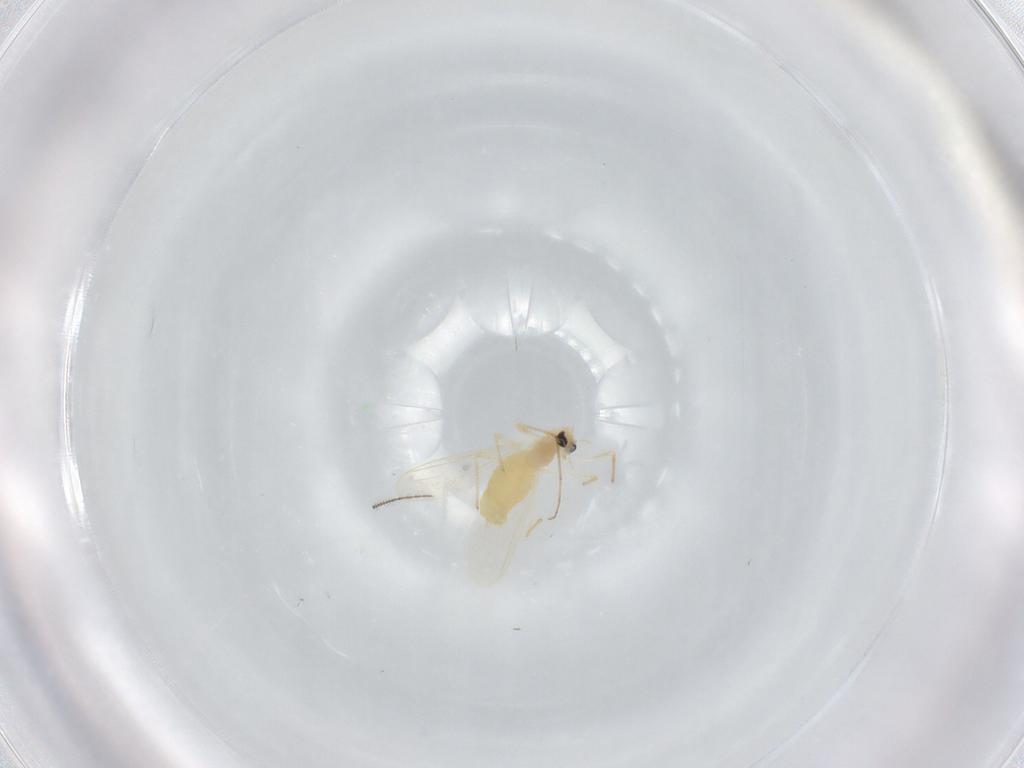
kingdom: Animalia
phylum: Arthropoda
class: Insecta
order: Diptera
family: Chironomidae
